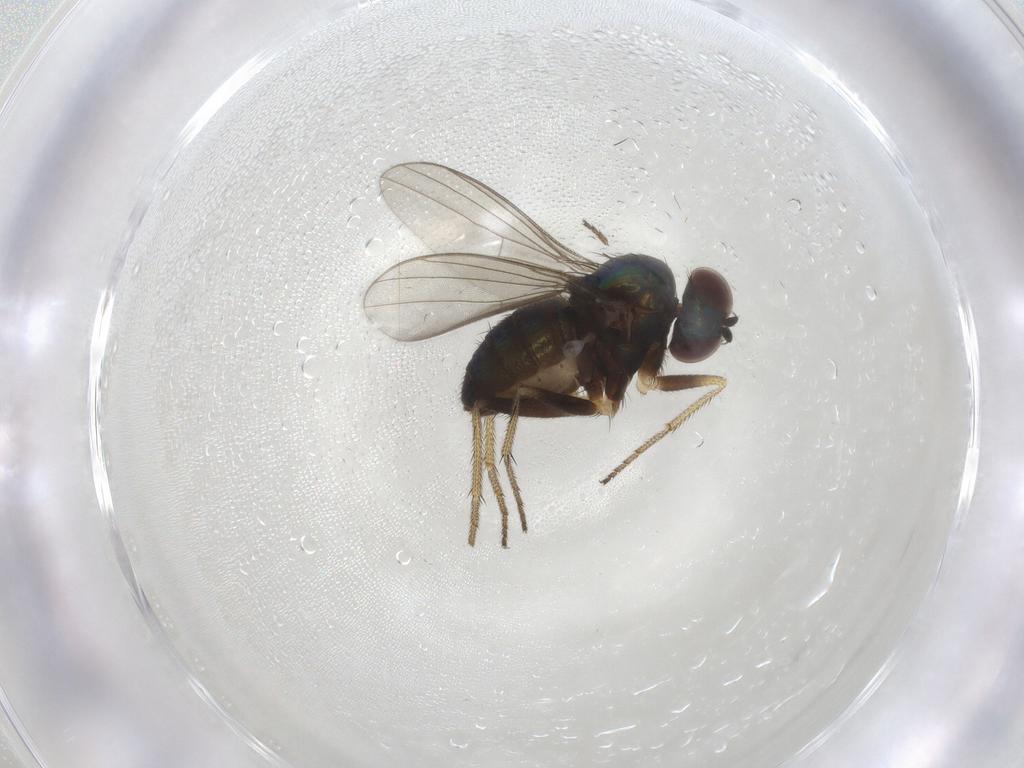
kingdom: Animalia
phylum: Arthropoda
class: Insecta
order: Diptera
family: Dolichopodidae
